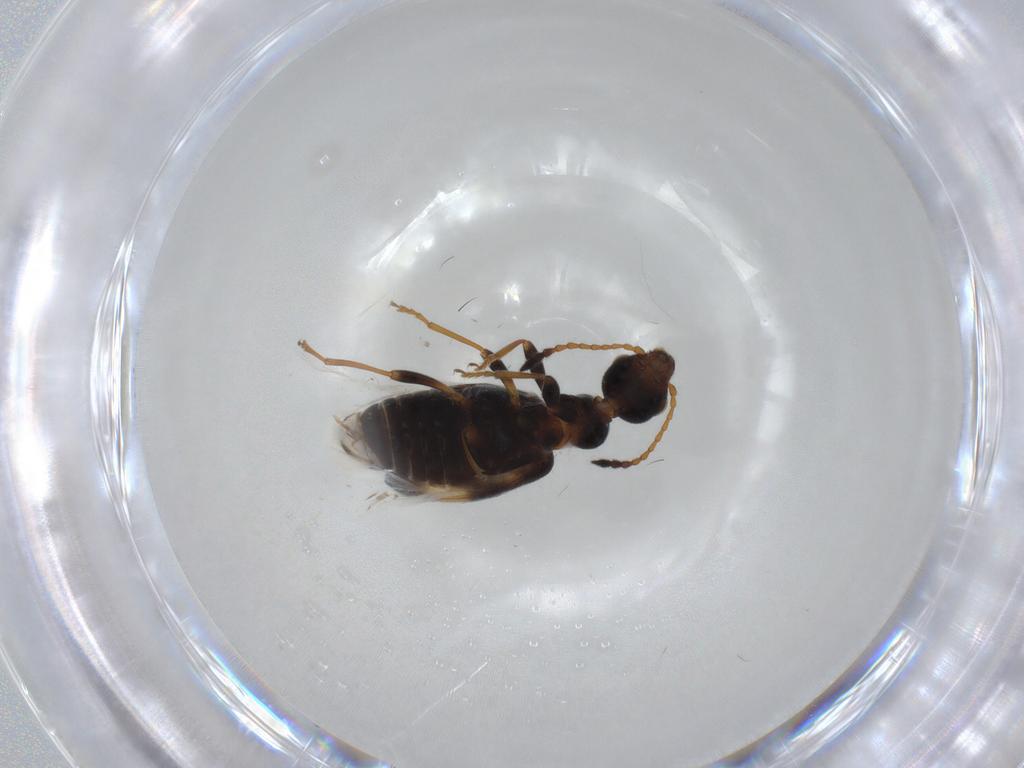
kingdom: Animalia
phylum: Arthropoda
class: Insecta
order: Coleoptera
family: Anthicidae
